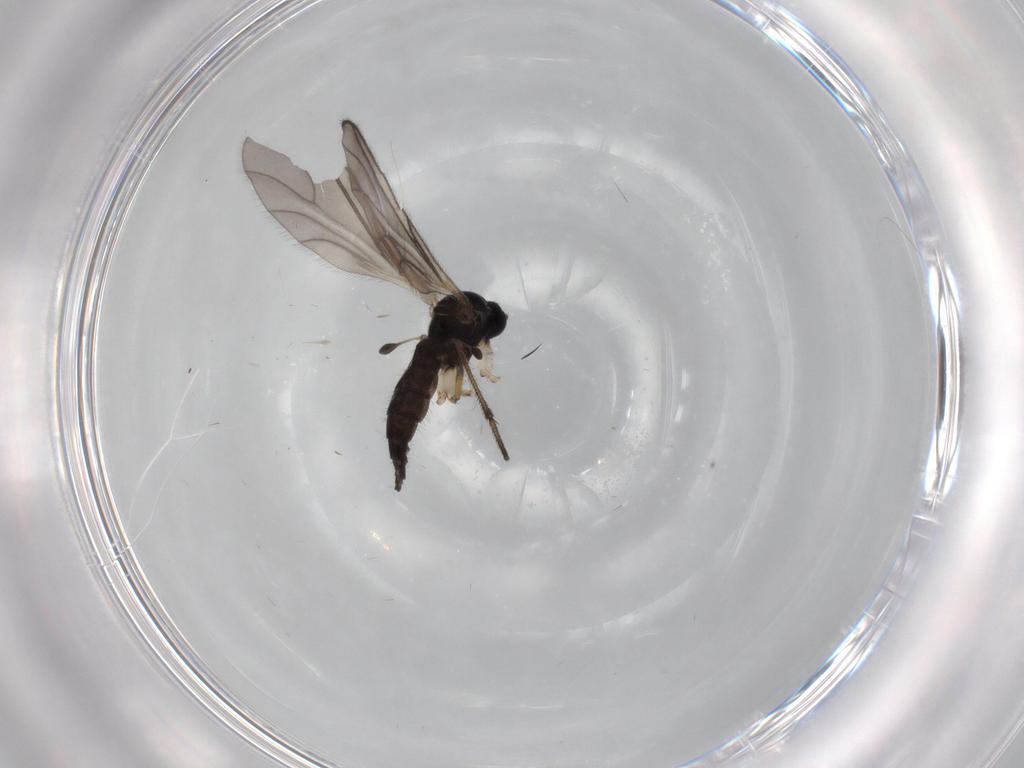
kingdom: Animalia
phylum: Arthropoda
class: Insecta
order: Diptera
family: Sciaridae
